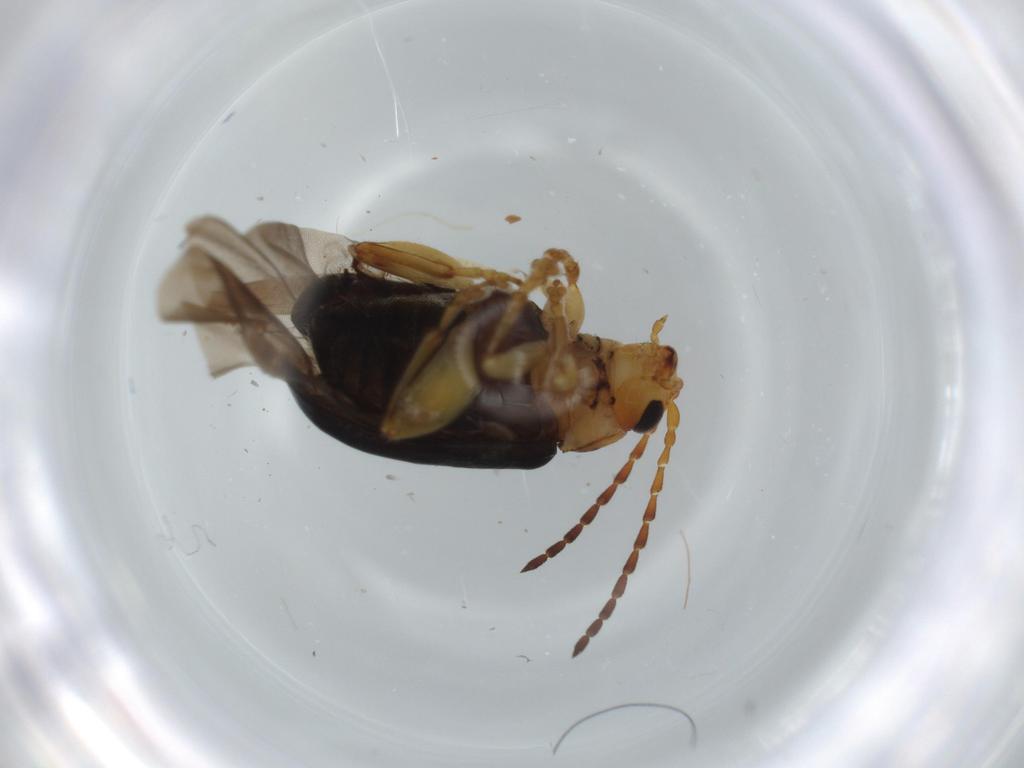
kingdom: Animalia
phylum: Arthropoda
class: Insecta
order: Coleoptera
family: Chrysomelidae
